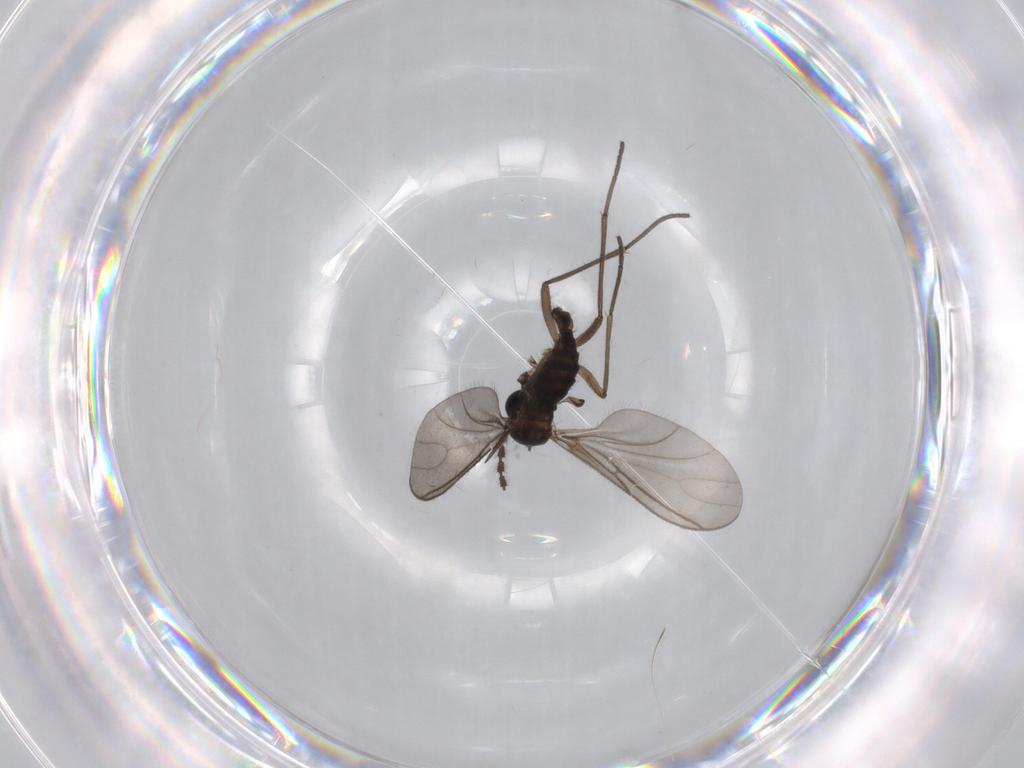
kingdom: Animalia
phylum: Arthropoda
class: Insecta
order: Diptera
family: Sciaridae
